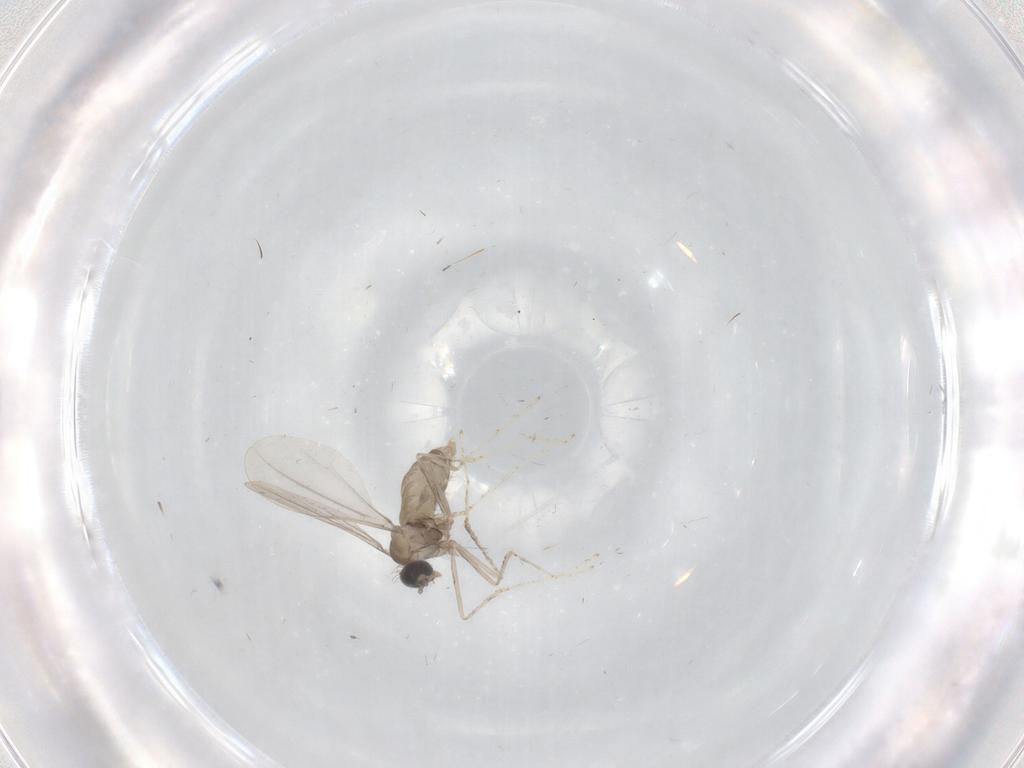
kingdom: Animalia
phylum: Arthropoda
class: Insecta
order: Diptera
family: Cecidomyiidae
